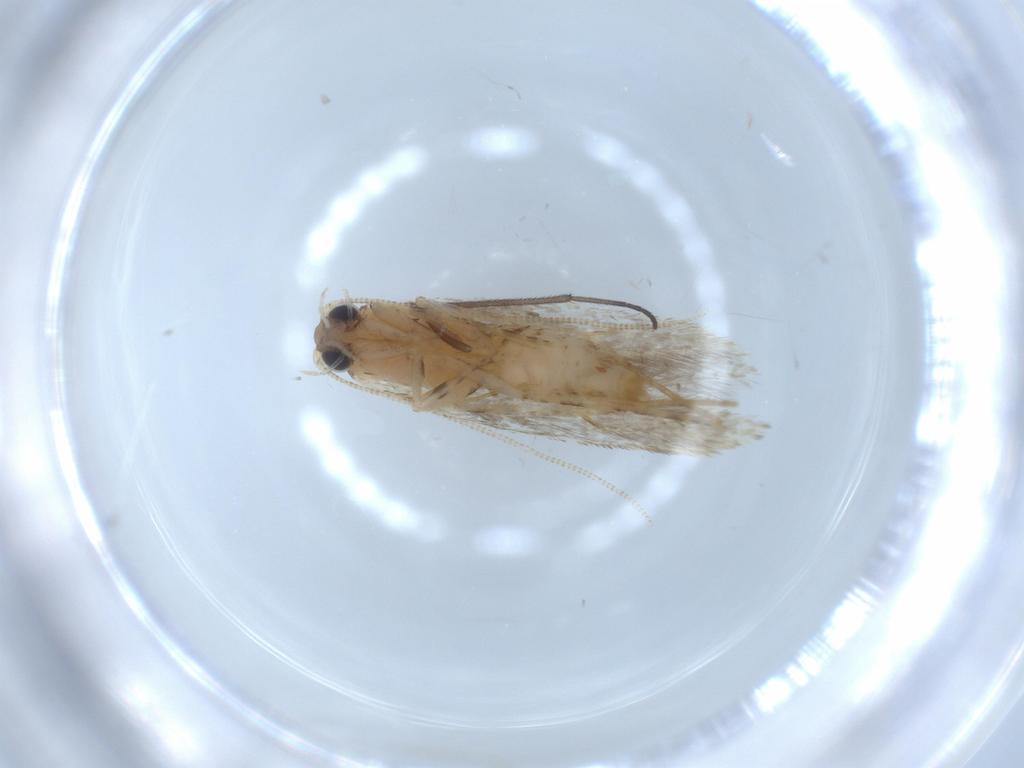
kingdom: Animalia
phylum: Arthropoda
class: Insecta
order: Lepidoptera
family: Tineidae
